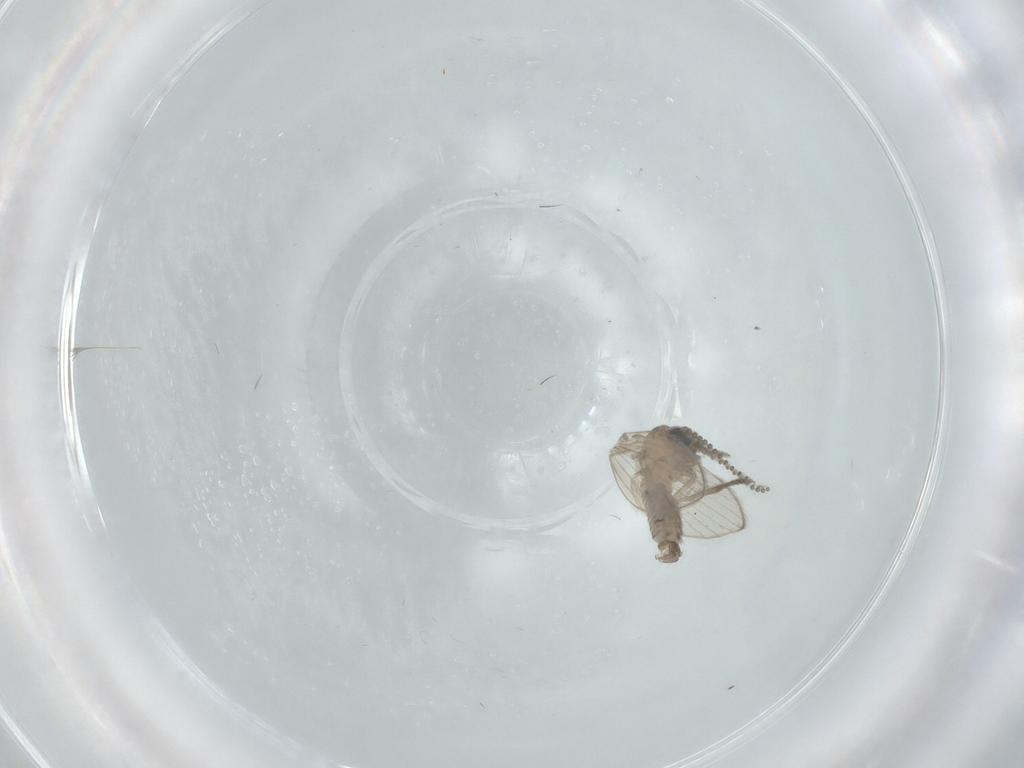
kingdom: Animalia
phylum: Arthropoda
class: Insecta
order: Diptera
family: Psychodidae
